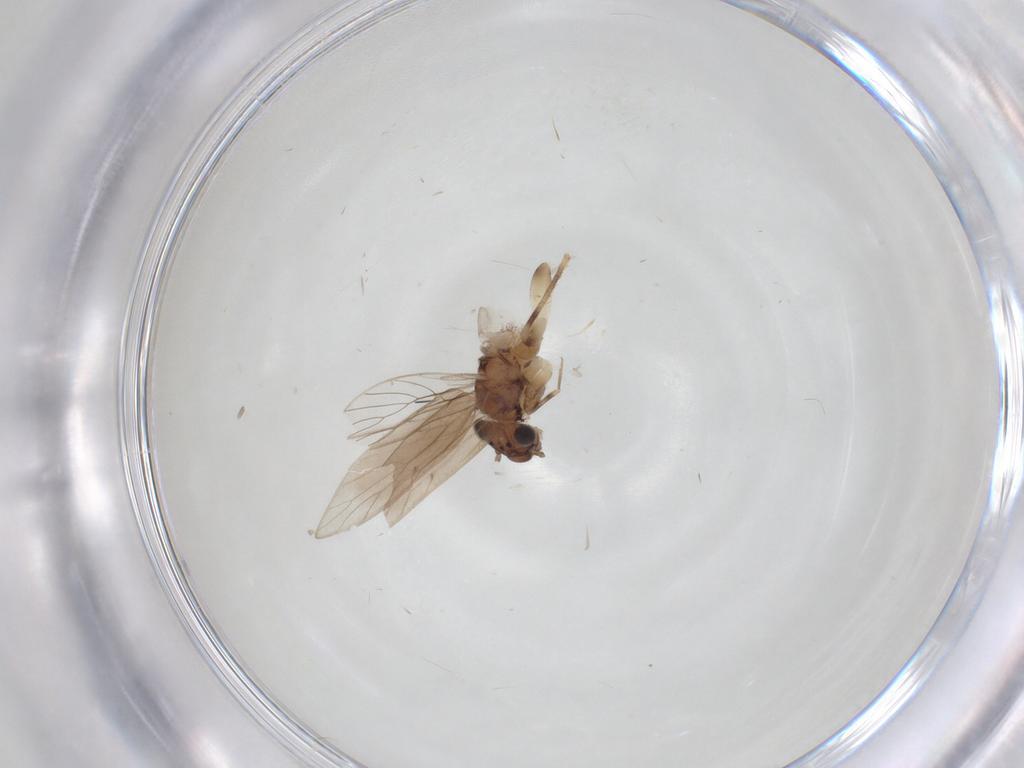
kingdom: Animalia
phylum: Arthropoda
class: Insecta
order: Psocodea
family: Lepidopsocidae
